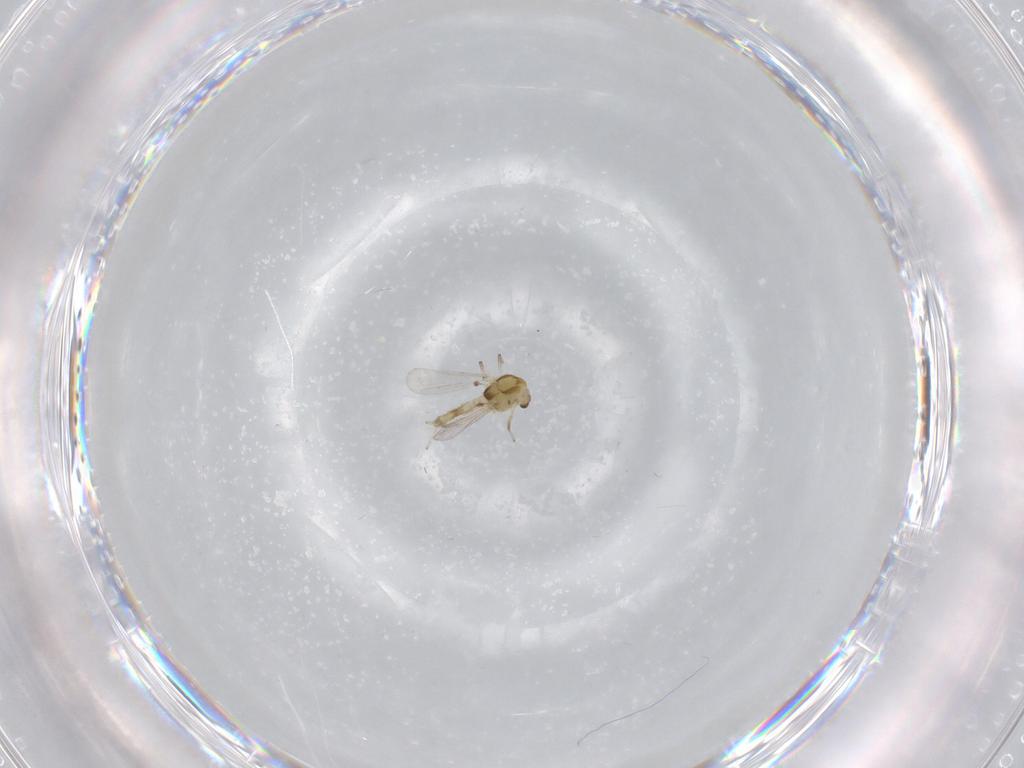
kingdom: Animalia
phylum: Arthropoda
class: Insecta
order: Diptera
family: Chironomidae
